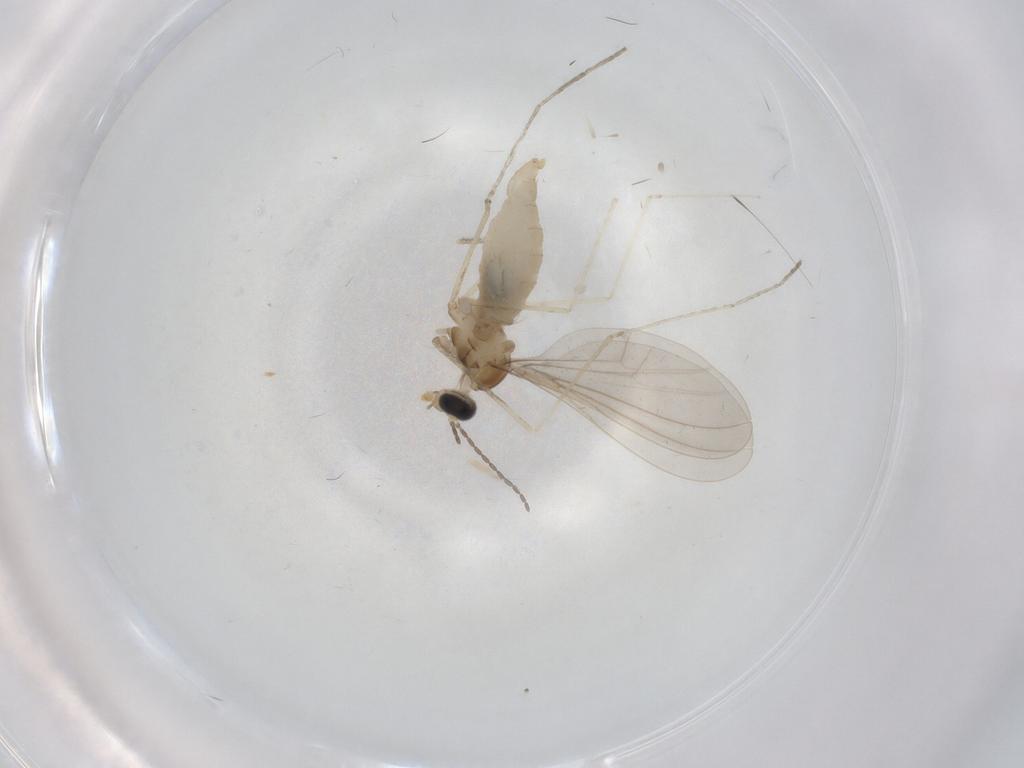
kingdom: Animalia
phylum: Arthropoda
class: Insecta
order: Diptera
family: Cecidomyiidae
